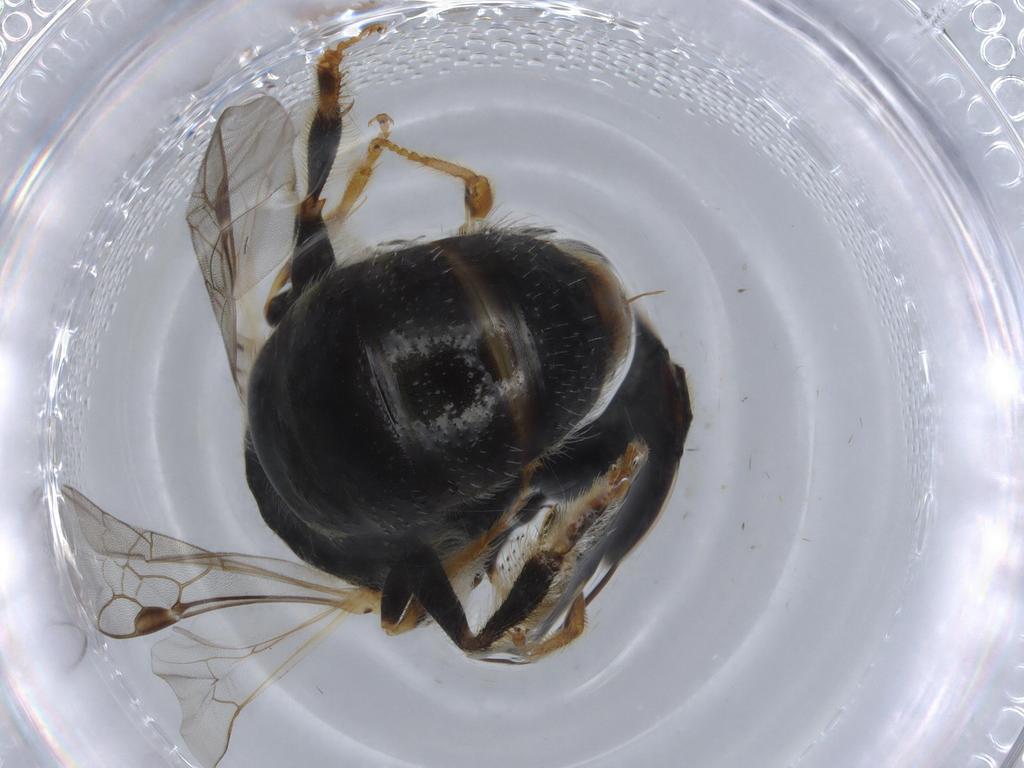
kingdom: Animalia
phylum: Arthropoda
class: Insecta
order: Hymenoptera
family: Halictidae
